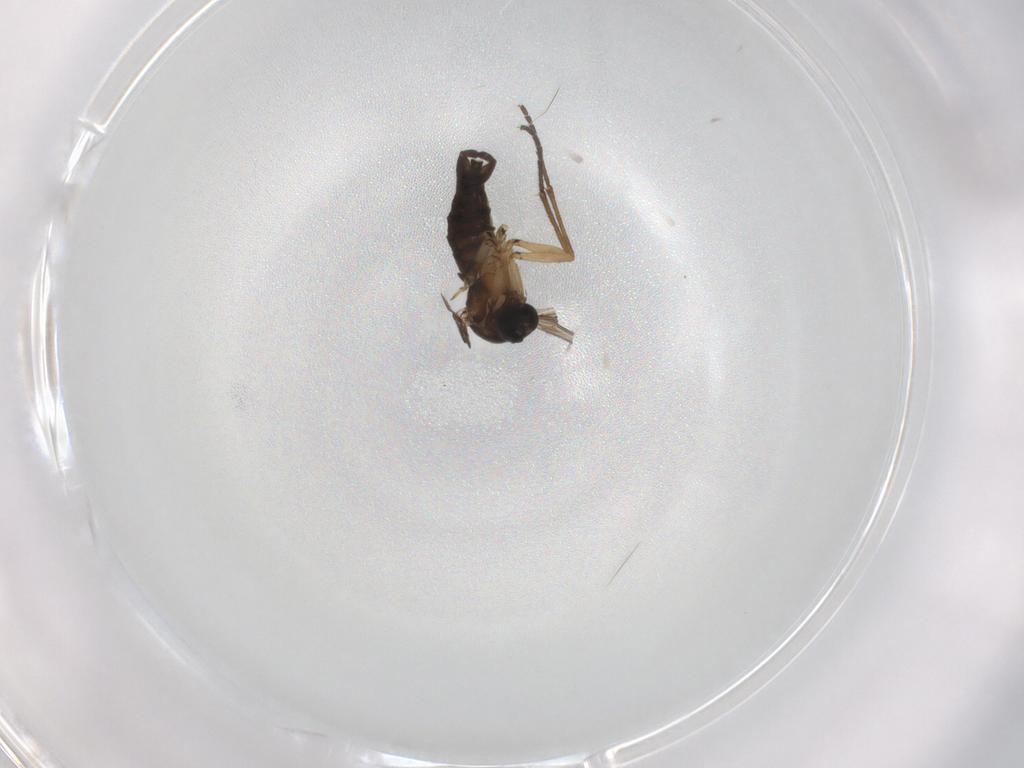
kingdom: Animalia
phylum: Arthropoda
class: Insecta
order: Diptera
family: Sciaridae
